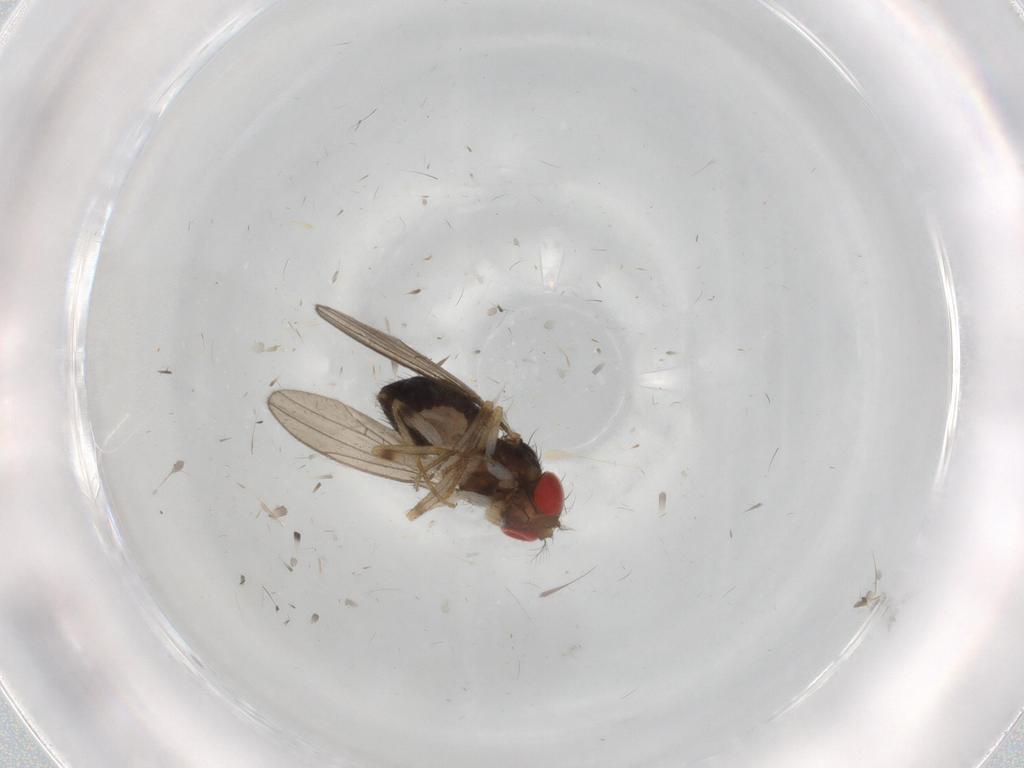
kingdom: Animalia
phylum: Arthropoda
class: Insecta
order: Diptera
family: Drosophilidae
